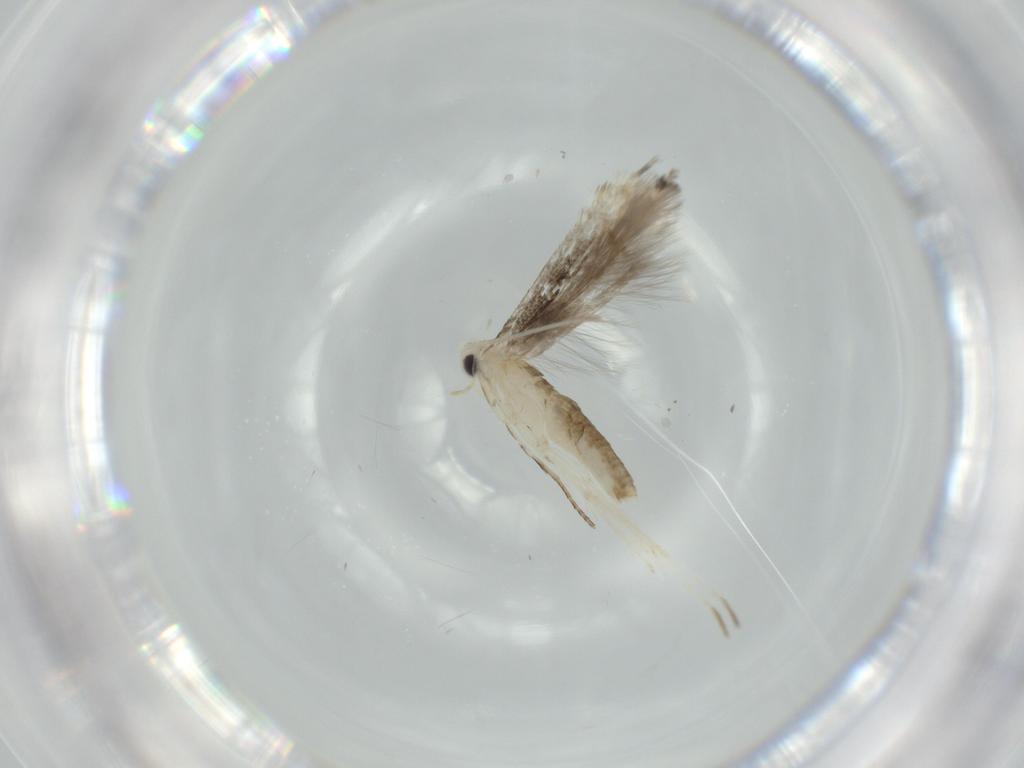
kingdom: Animalia
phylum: Arthropoda
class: Insecta
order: Lepidoptera
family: Nepticulidae
